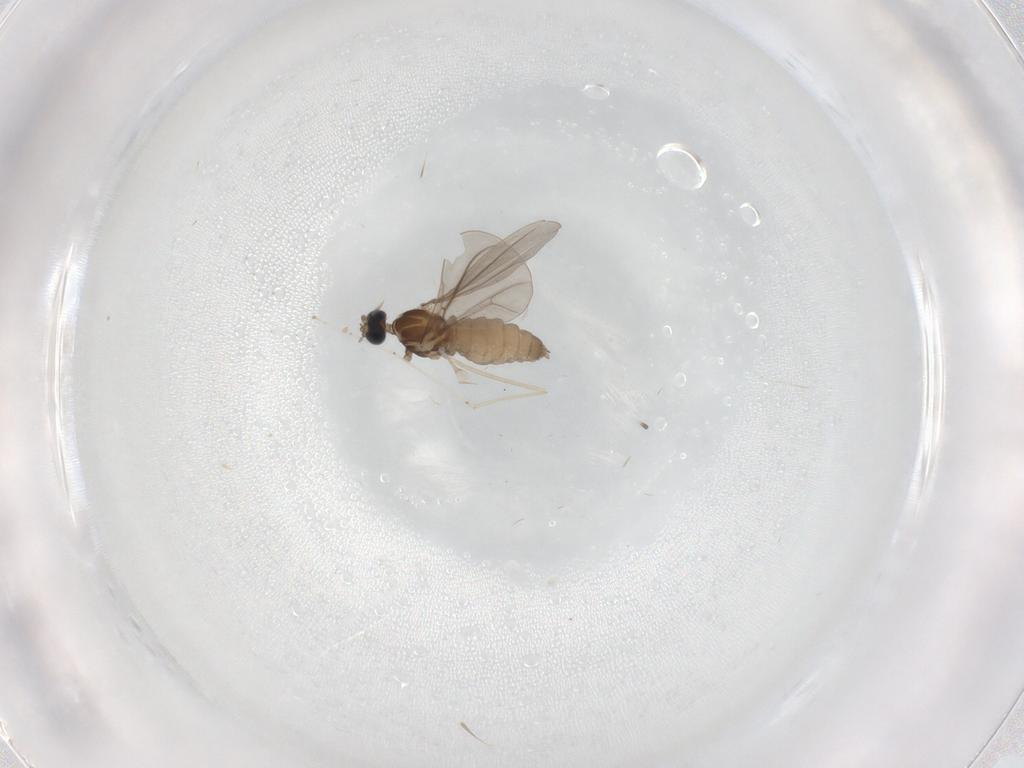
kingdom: Animalia
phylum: Arthropoda
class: Insecta
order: Diptera
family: Cecidomyiidae
